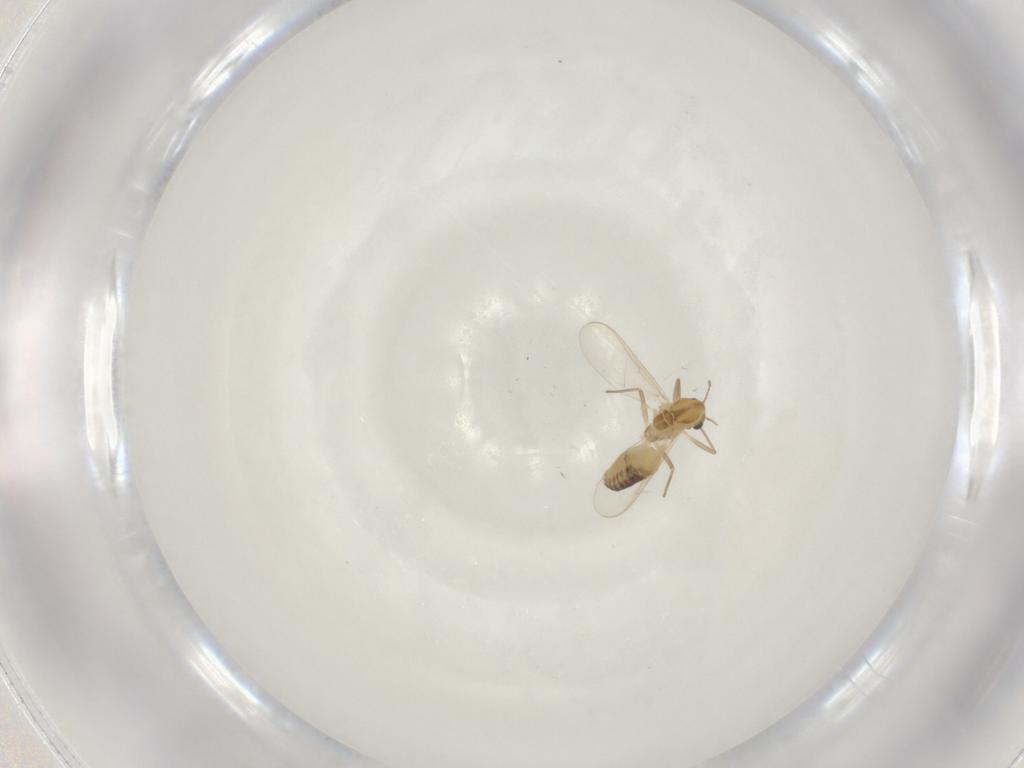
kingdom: Animalia
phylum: Arthropoda
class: Insecta
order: Diptera
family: Chironomidae
